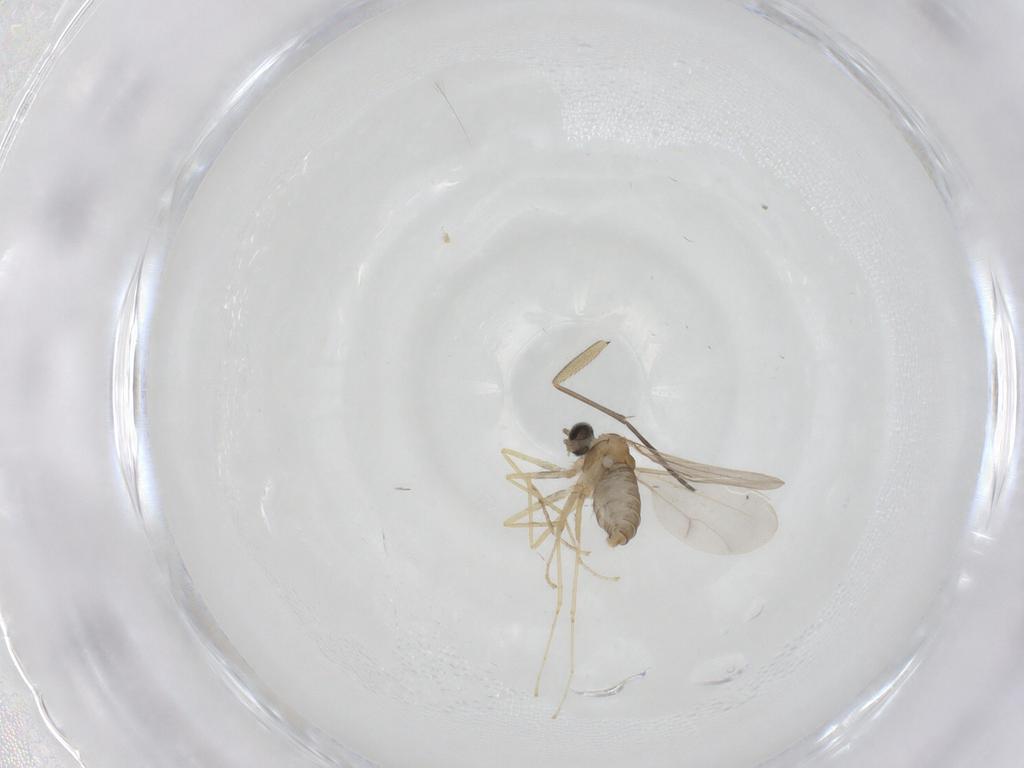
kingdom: Animalia
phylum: Arthropoda
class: Insecta
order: Diptera
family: Cecidomyiidae
